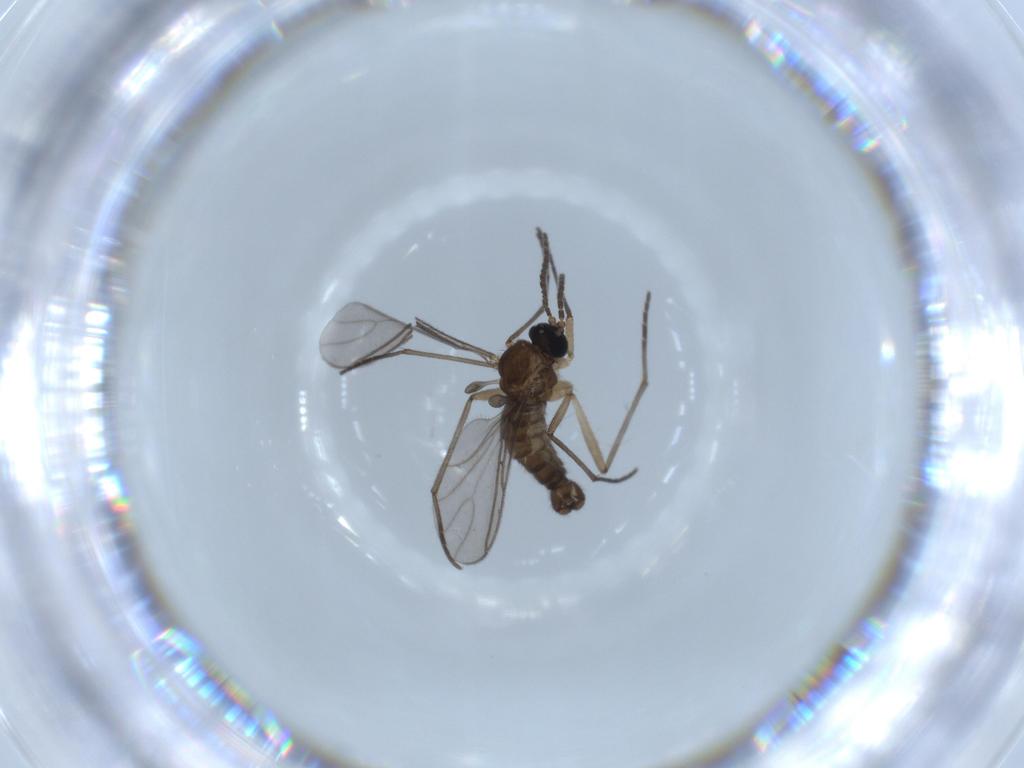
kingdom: Animalia
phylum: Arthropoda
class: Insecta
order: Diptera
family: Sciaridae
